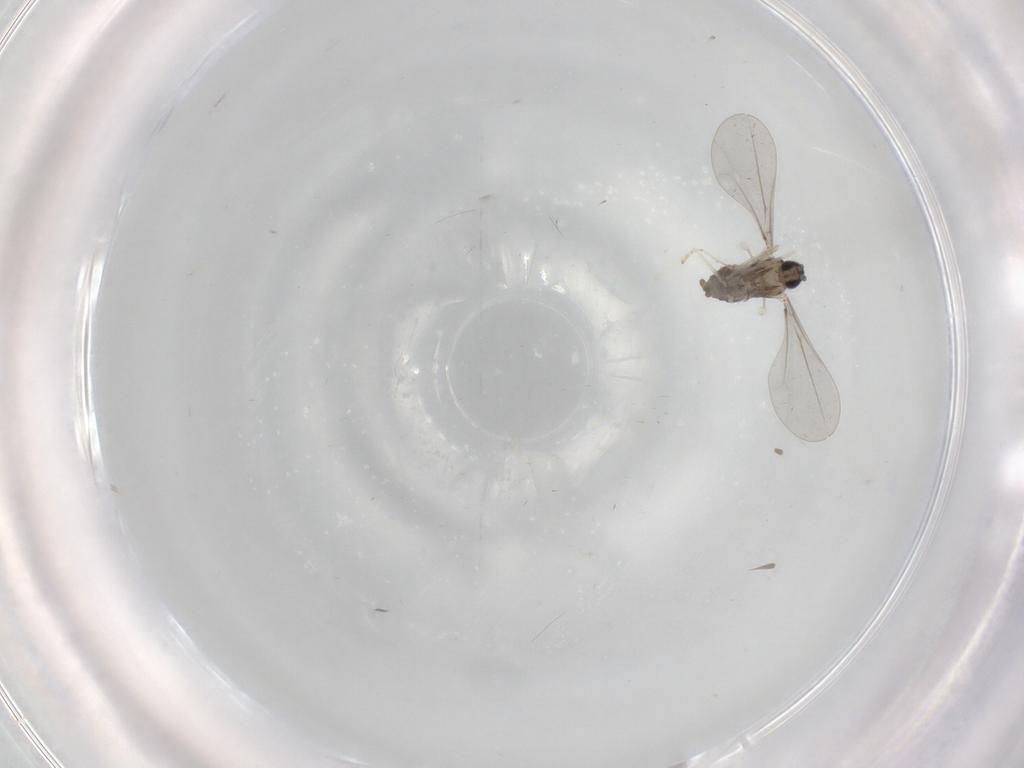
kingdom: Animalia
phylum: Arthropoda
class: Insecta
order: Diptera
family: Cecidomyiidae
